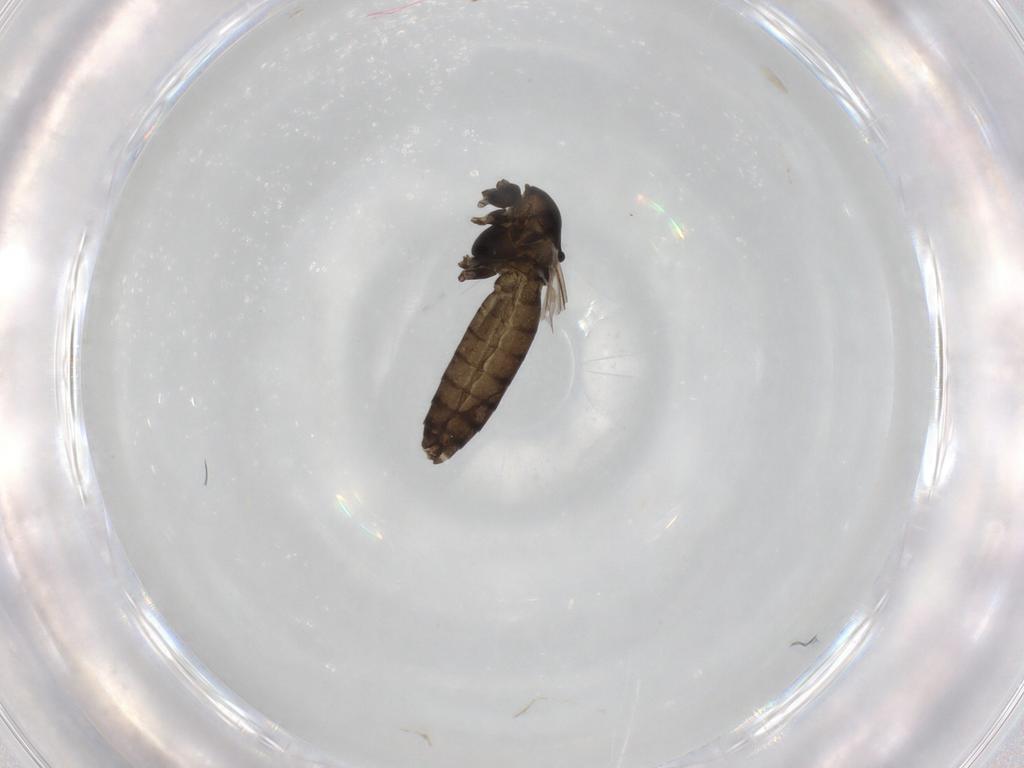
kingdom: Animalia
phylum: Arthropoda
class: Insecta
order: Diptera
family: Chironomidae
